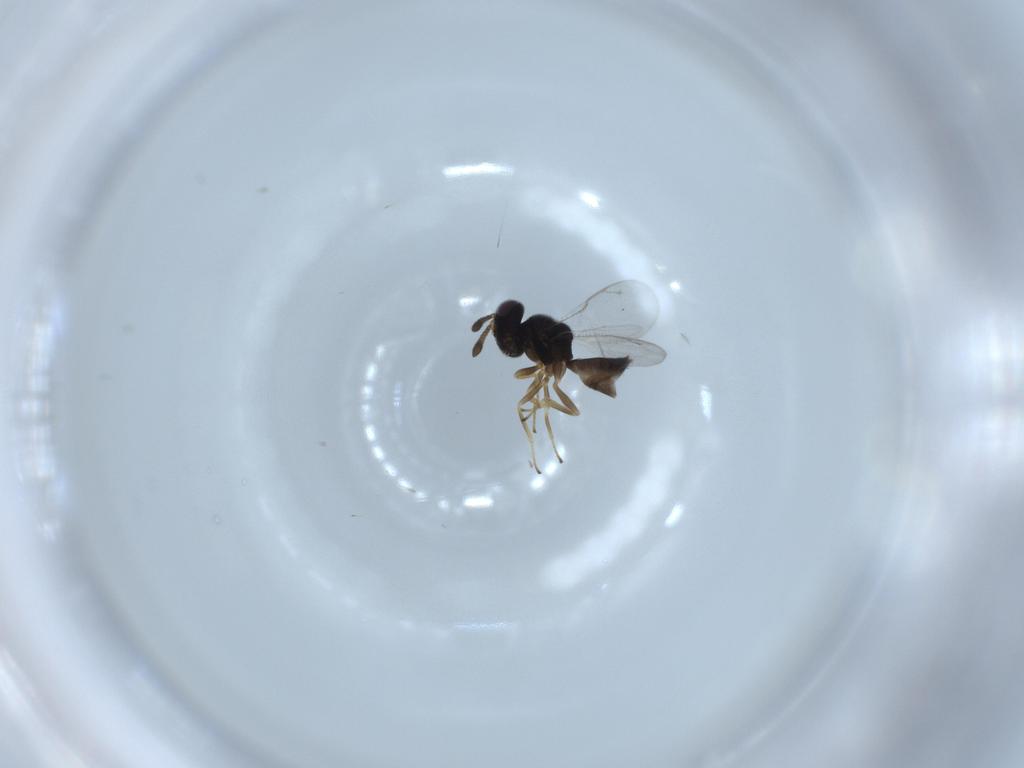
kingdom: Animalia
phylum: Arthropoda
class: Insecta
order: Hymenoptera
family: Pteromalidae
